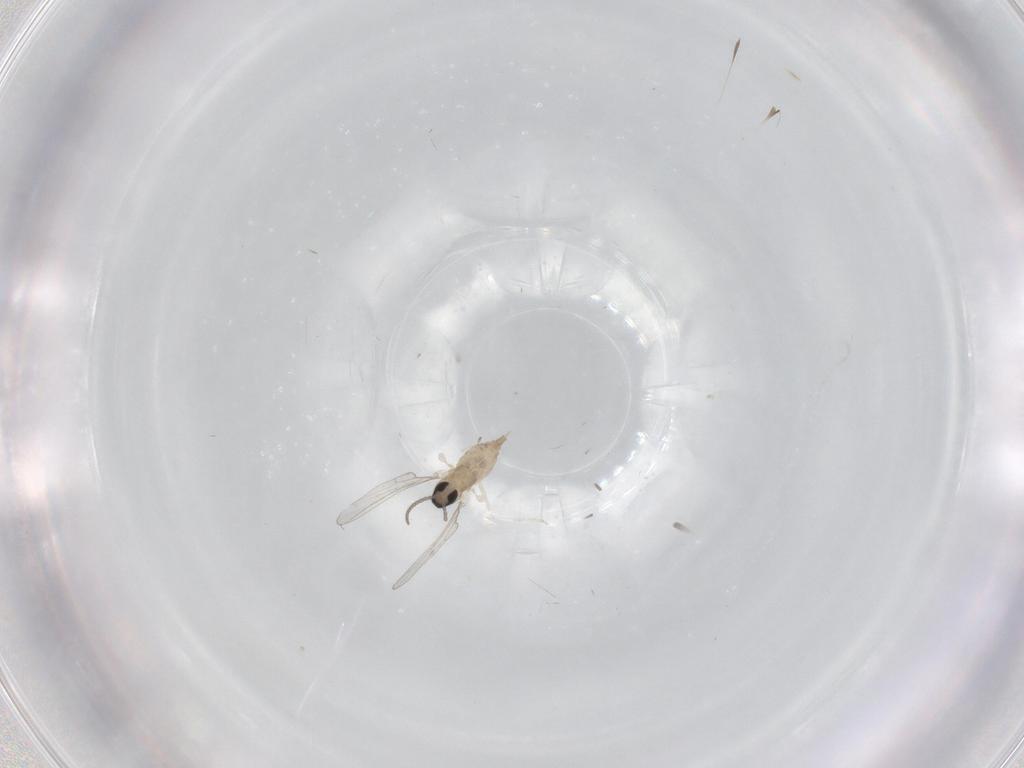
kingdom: Animalia
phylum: Arthropoda
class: Insecta
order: Diptera
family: Cecidomyiidae
